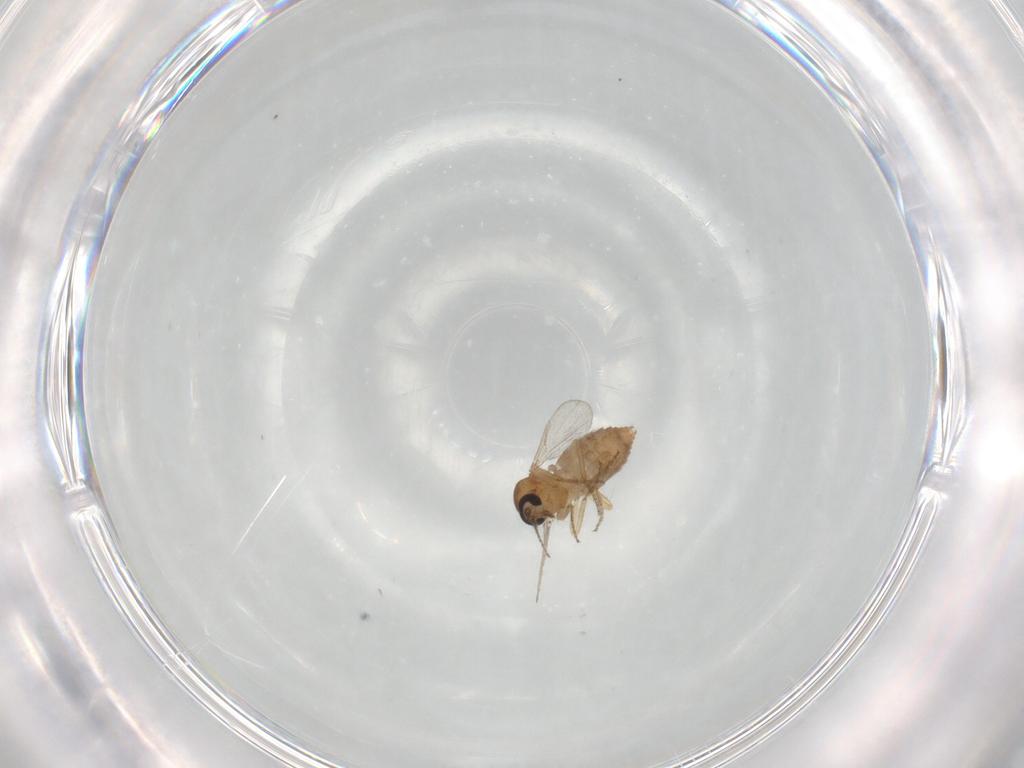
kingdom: Animalia
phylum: Arthropoda
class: Insecta
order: Diptera
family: Ceratopogonidae
